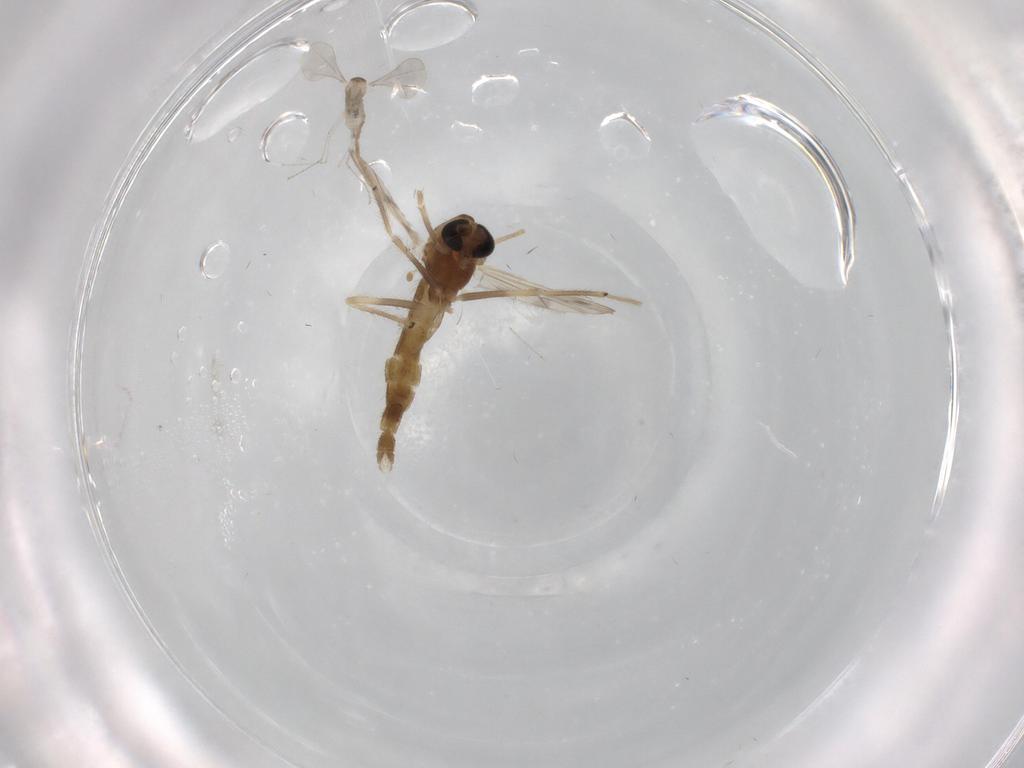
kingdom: Animalia
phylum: Arthropoda
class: Insecta
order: Diptera
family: Chironomidae
